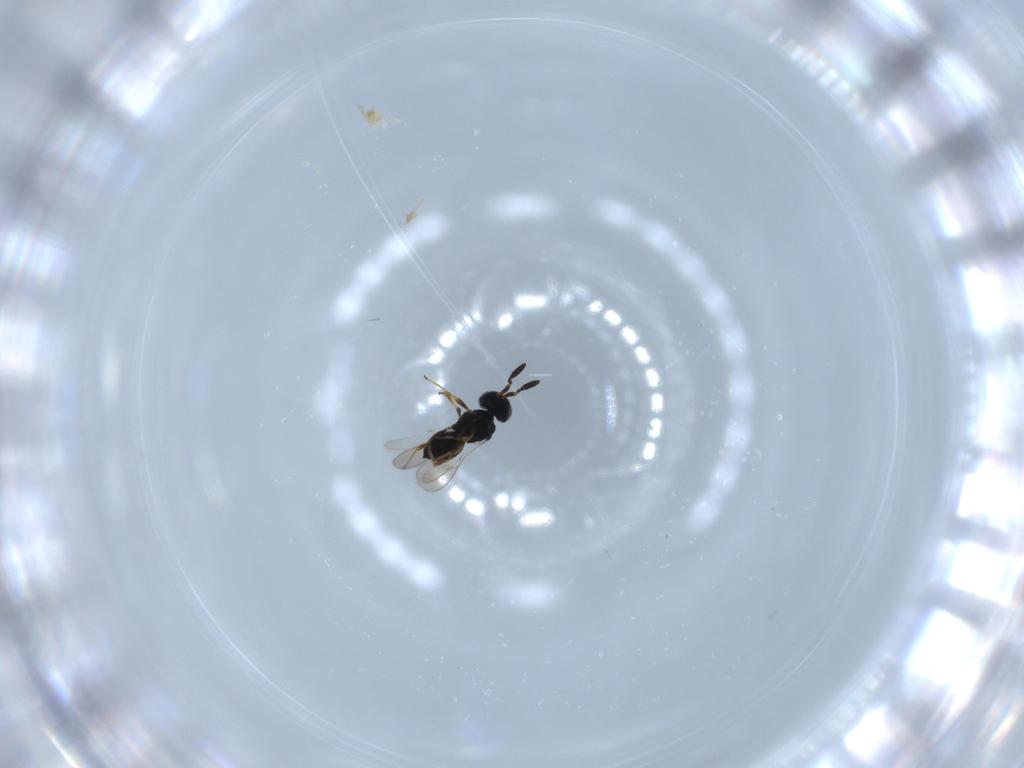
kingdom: Animalia
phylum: Arthropoda
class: Insecta
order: Hymenoptera
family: Scelionidae
